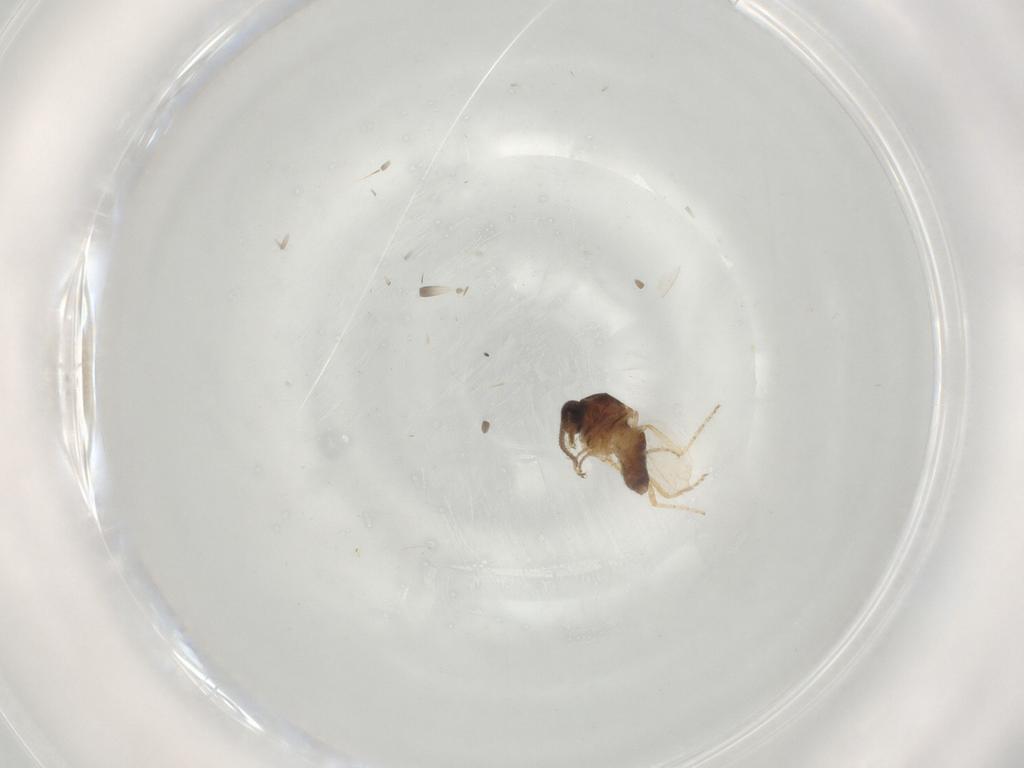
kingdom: Animalia
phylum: Arthropoda
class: Insecta
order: Diptera
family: Ceratopogonidae
